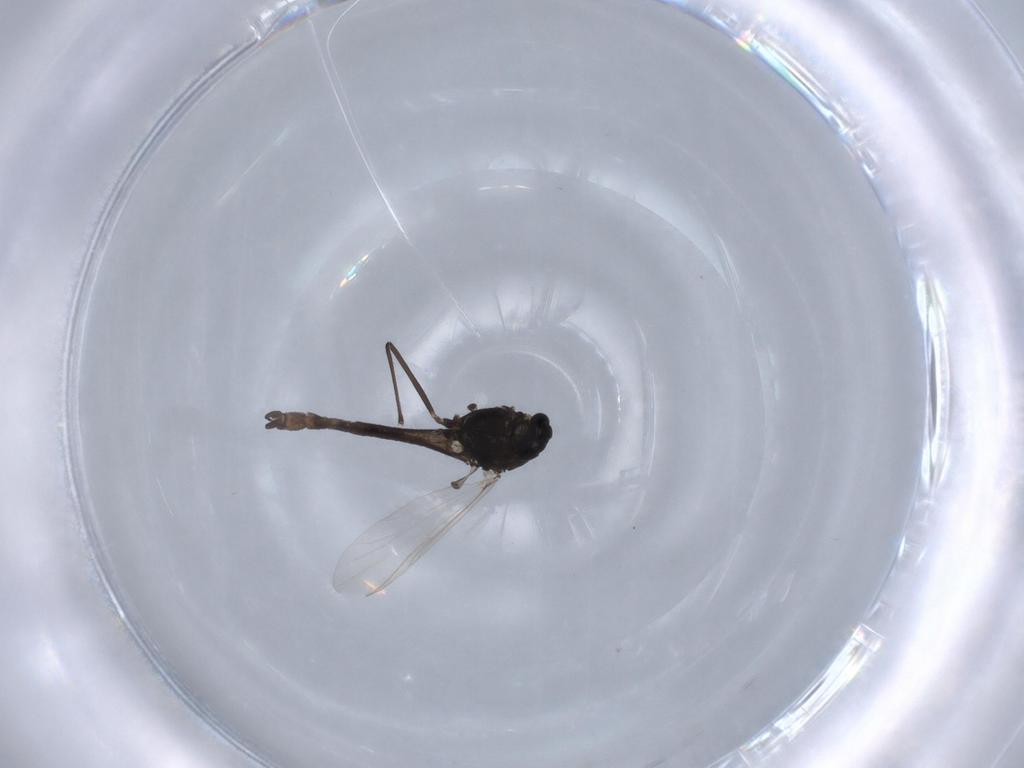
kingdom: Animalia
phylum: Arthropoda
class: Insecta
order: Diptera
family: Chironomidae
